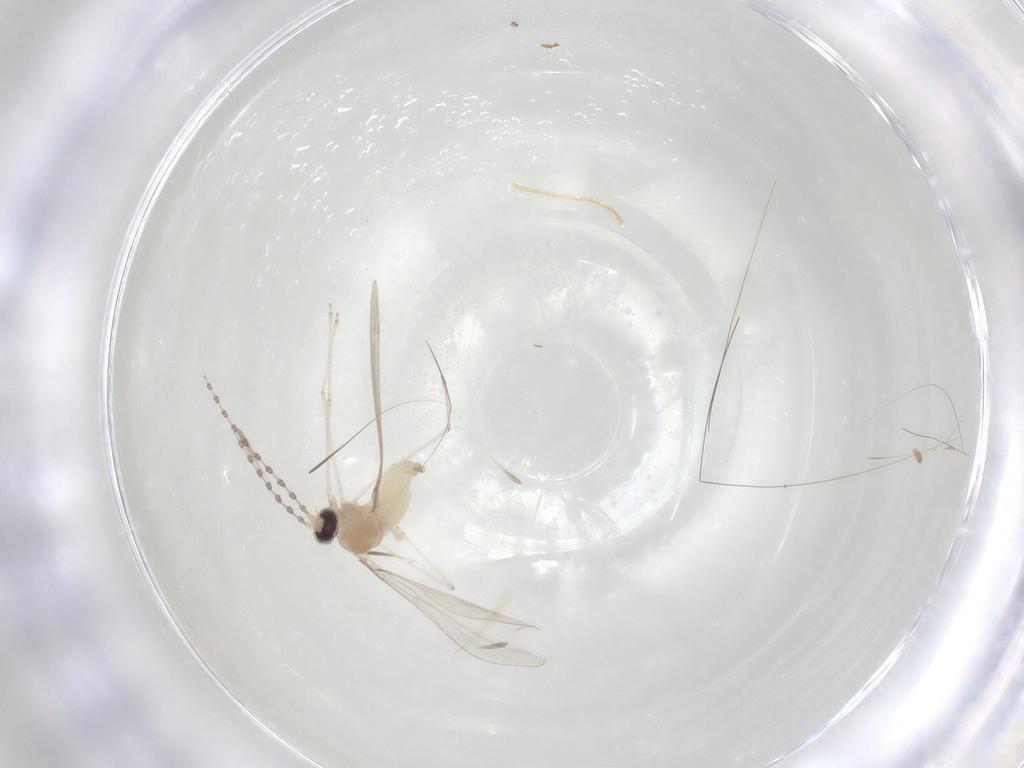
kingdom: Animalia
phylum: Arthropoda
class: Insecta
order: Diptera
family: Cecidomyiidae
